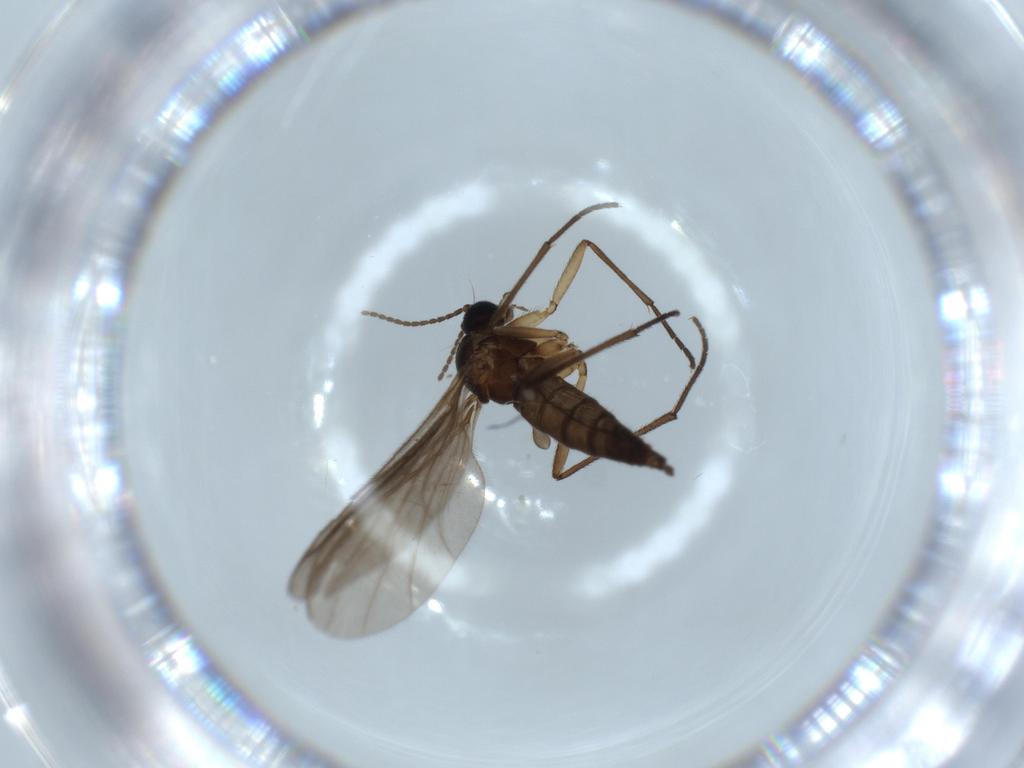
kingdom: Animalia
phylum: Arthropoda
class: Insecta
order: Diptera
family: Sciaridae
